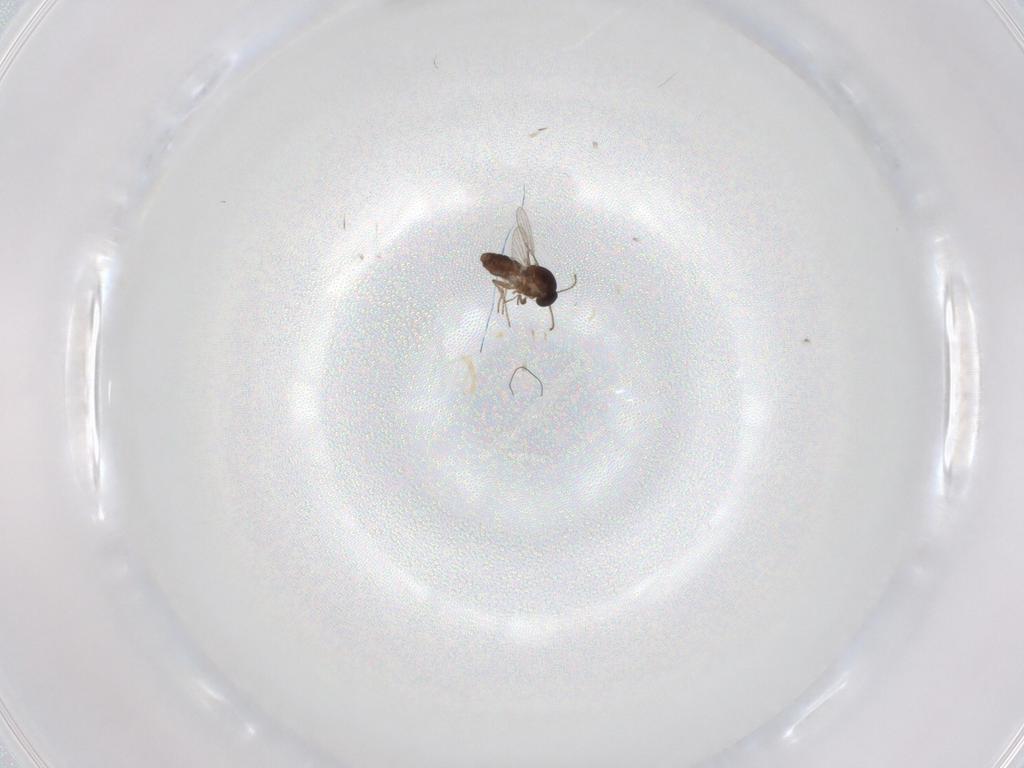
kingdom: Animalia
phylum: Arthropoda
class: Insecta
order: Diptera
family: Ceratopogonidae
